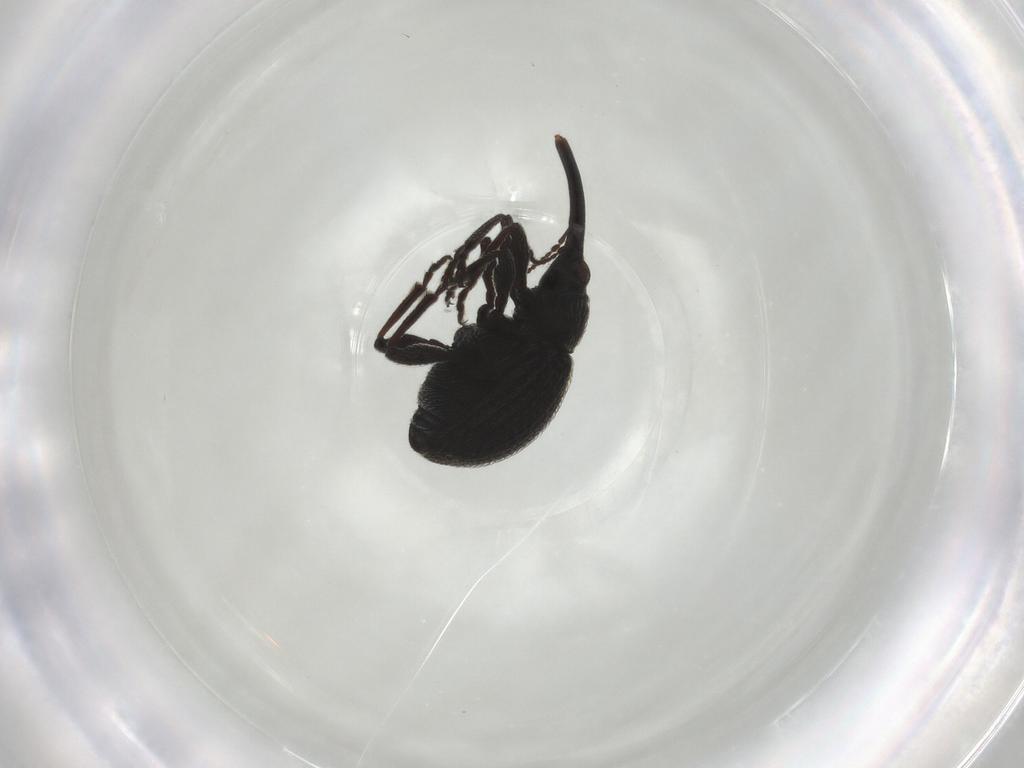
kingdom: Animalia
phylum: Arthropoda
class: Insecta
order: Coleoptera
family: Brentidae
